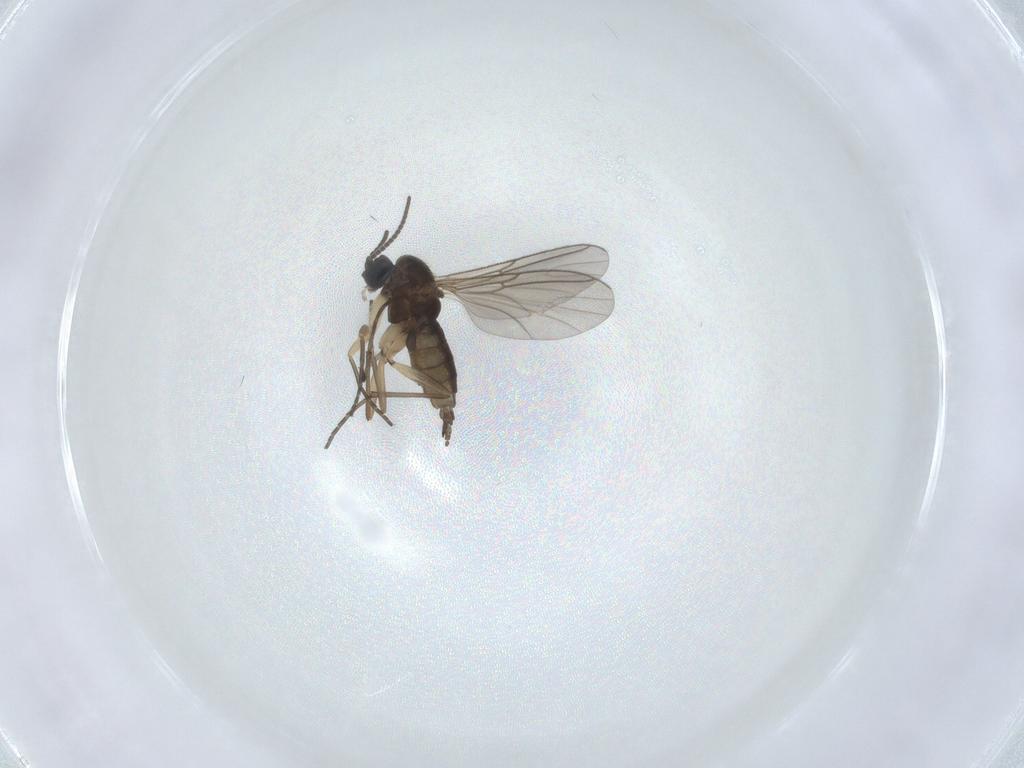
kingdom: Animalia
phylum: Arthropoda
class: Insecta
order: Diptera
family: Sciaridae
